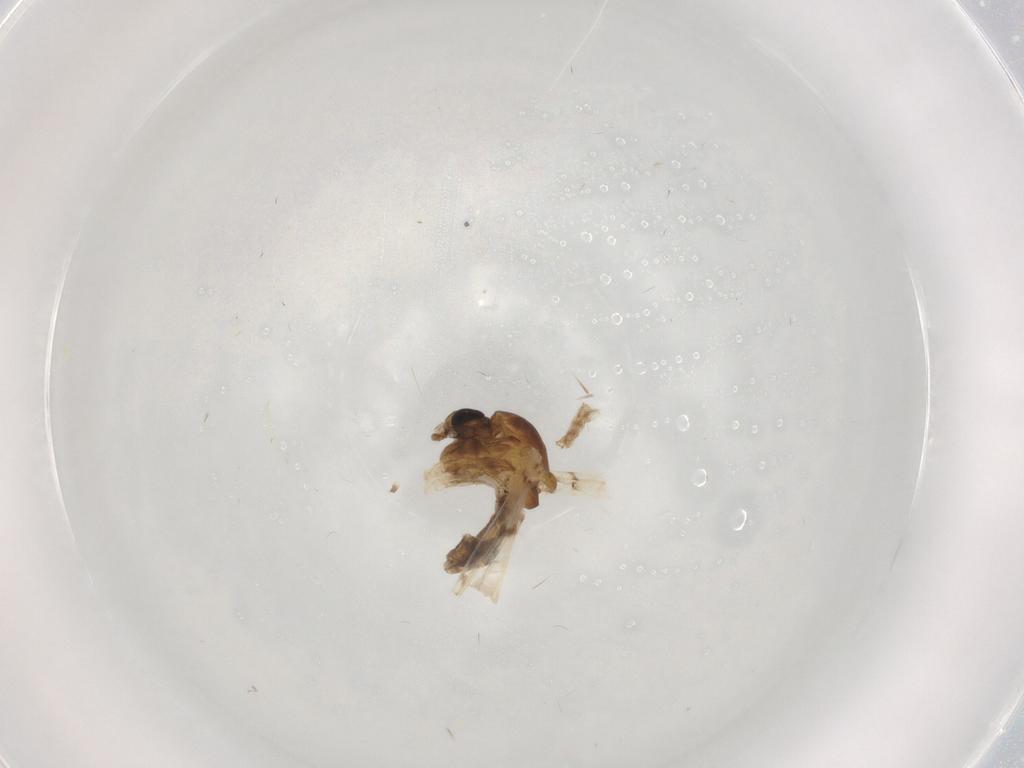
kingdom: Animalia
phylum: Arthropoda
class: Insecta
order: Diptera
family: Chironomidae
